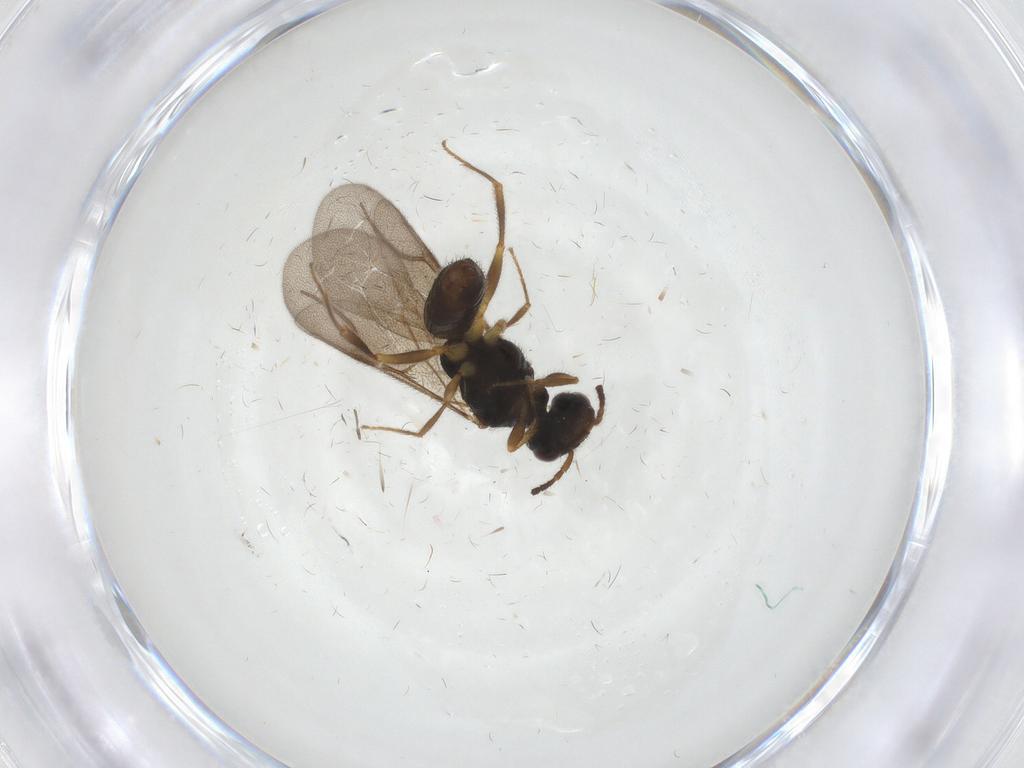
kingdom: Animalia
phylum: Arthropoda
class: Insecta
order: Hymenoptera
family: Bethylidae
